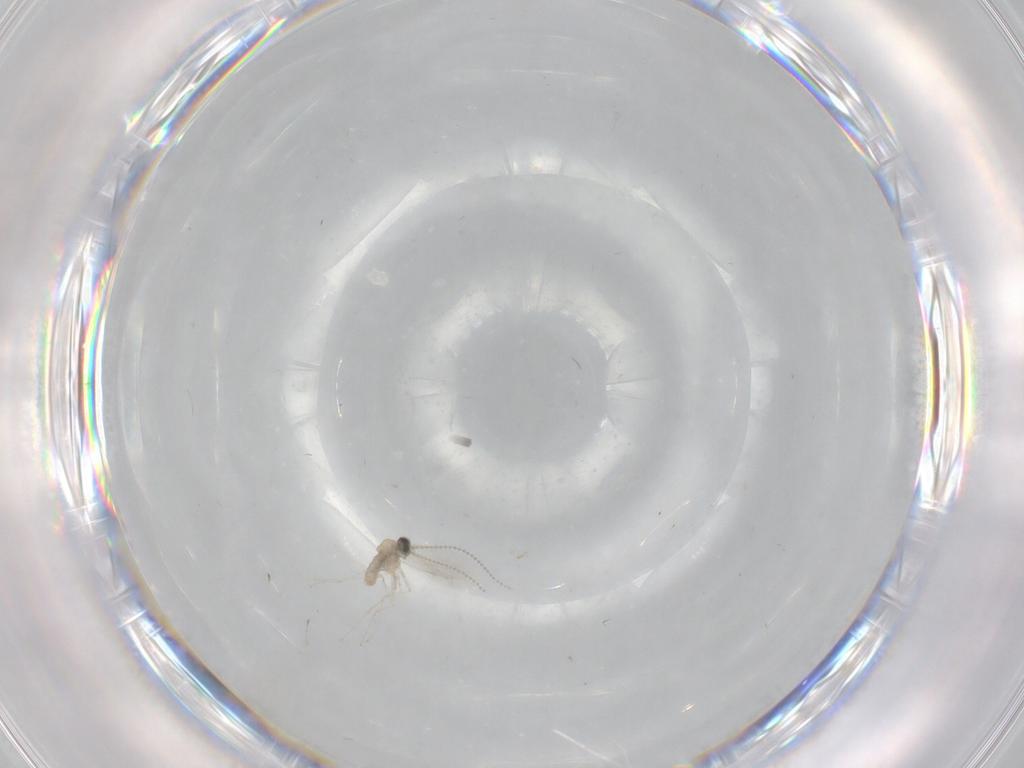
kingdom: Animalia
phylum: Arthropoda
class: Insecta
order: Diptera
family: Cecidomyiidae
